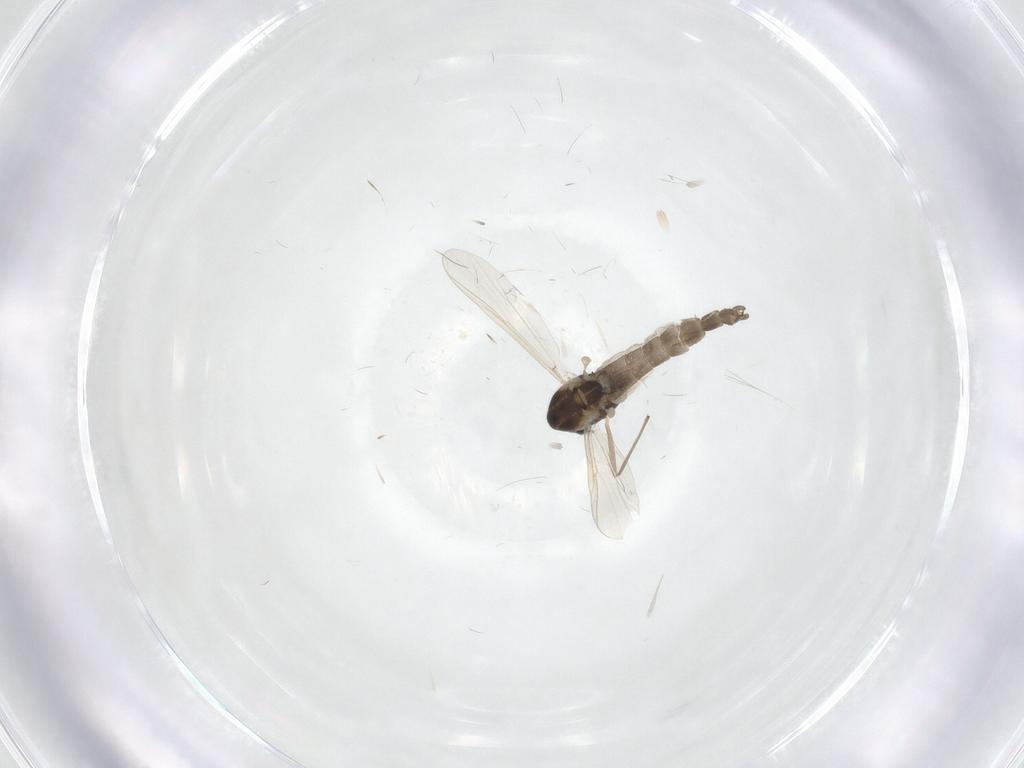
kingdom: Animalia
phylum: Arthropoda
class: Insecta
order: Diptera
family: Chironomidae
